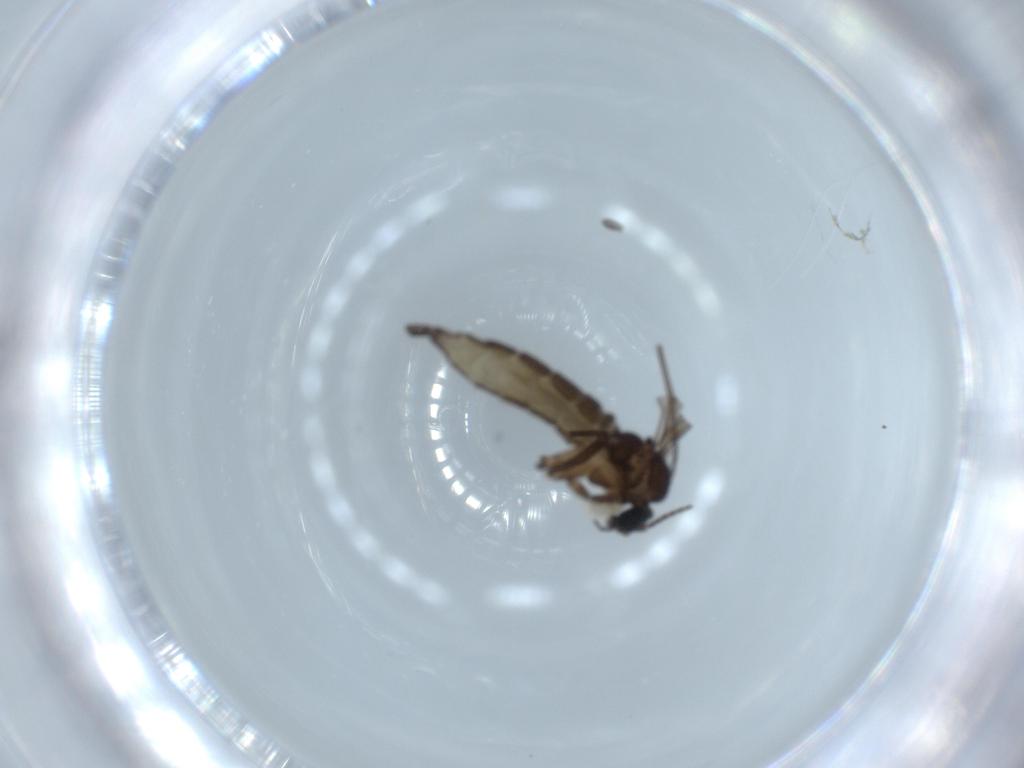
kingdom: Animalia
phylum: Arthropoda
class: Insecta
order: Diptera
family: Sciaridae
